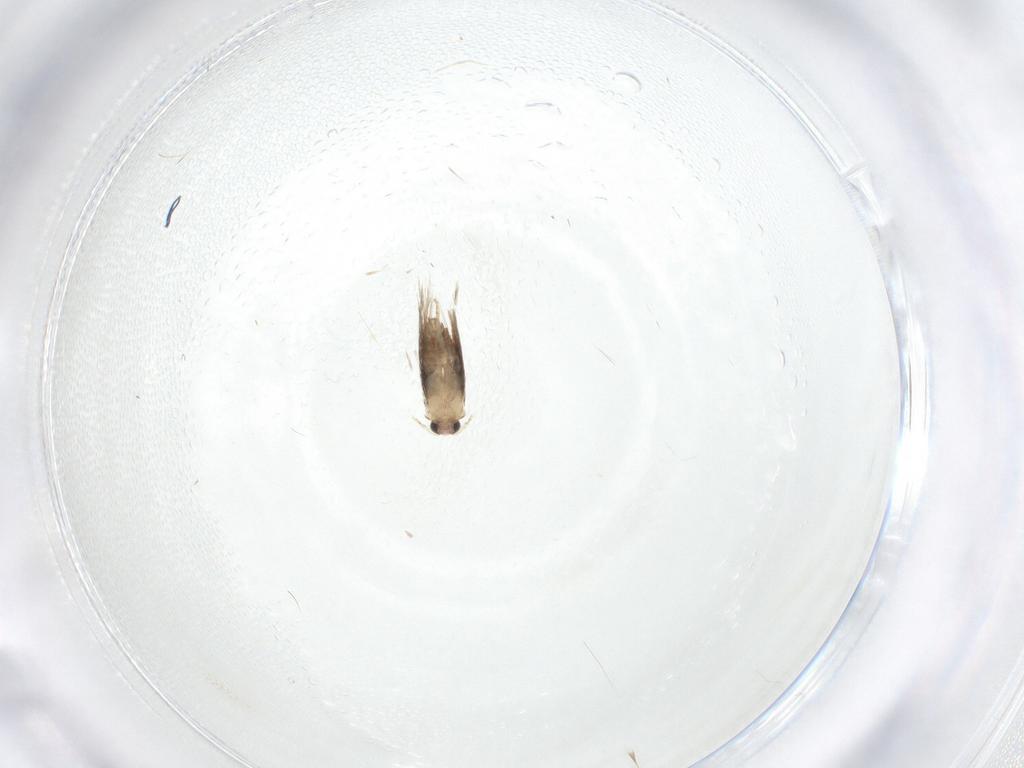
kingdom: Animalia
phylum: Arthropoda
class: Insecta
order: Lepidoptera
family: Nepticulidae
